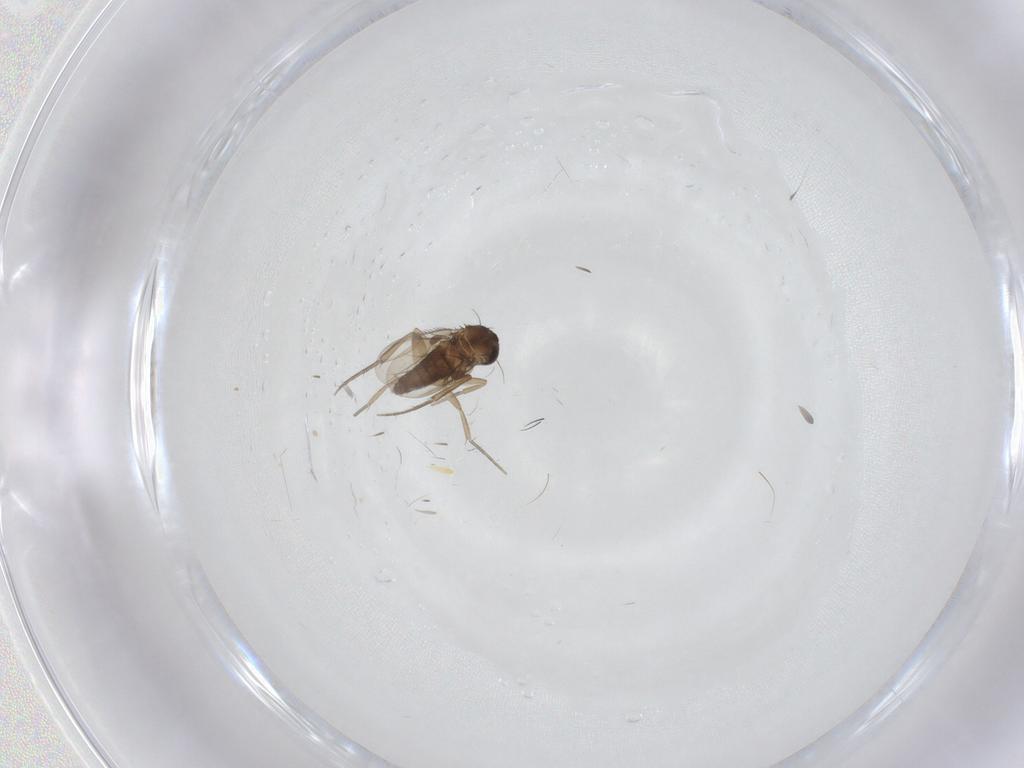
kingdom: Animalia
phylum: Arthropoda
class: Insecta
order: Diptera
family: Phoridae
